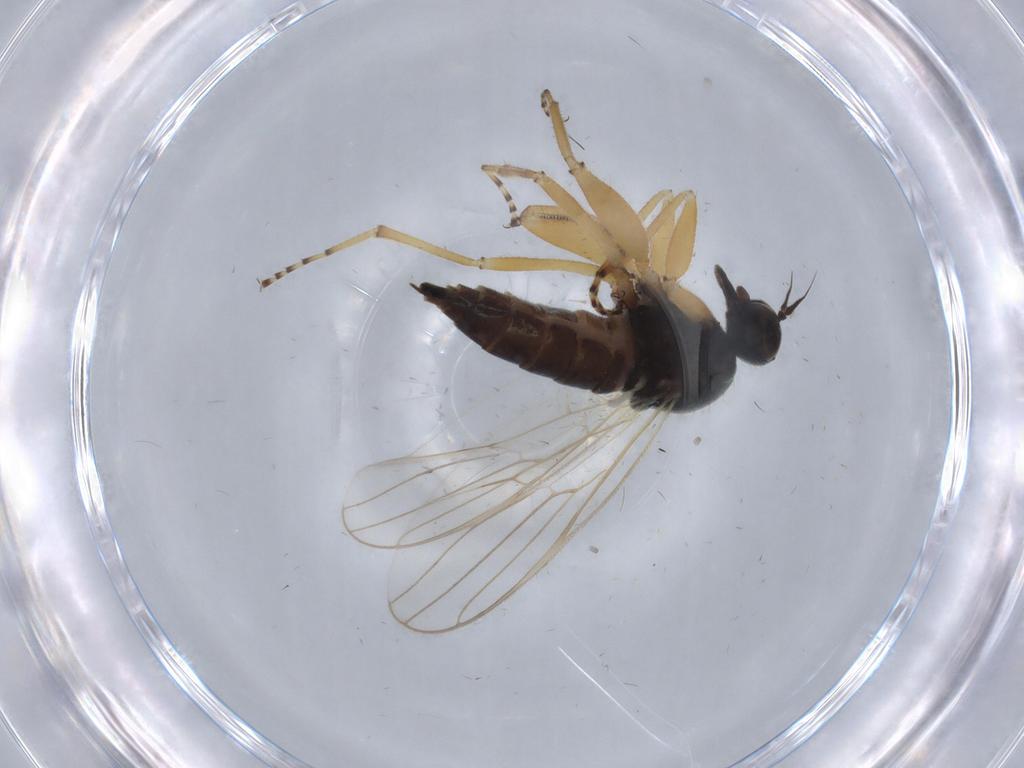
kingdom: Animalia
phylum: Arthropoda
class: Insecta
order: Diptera
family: Hybotidae
